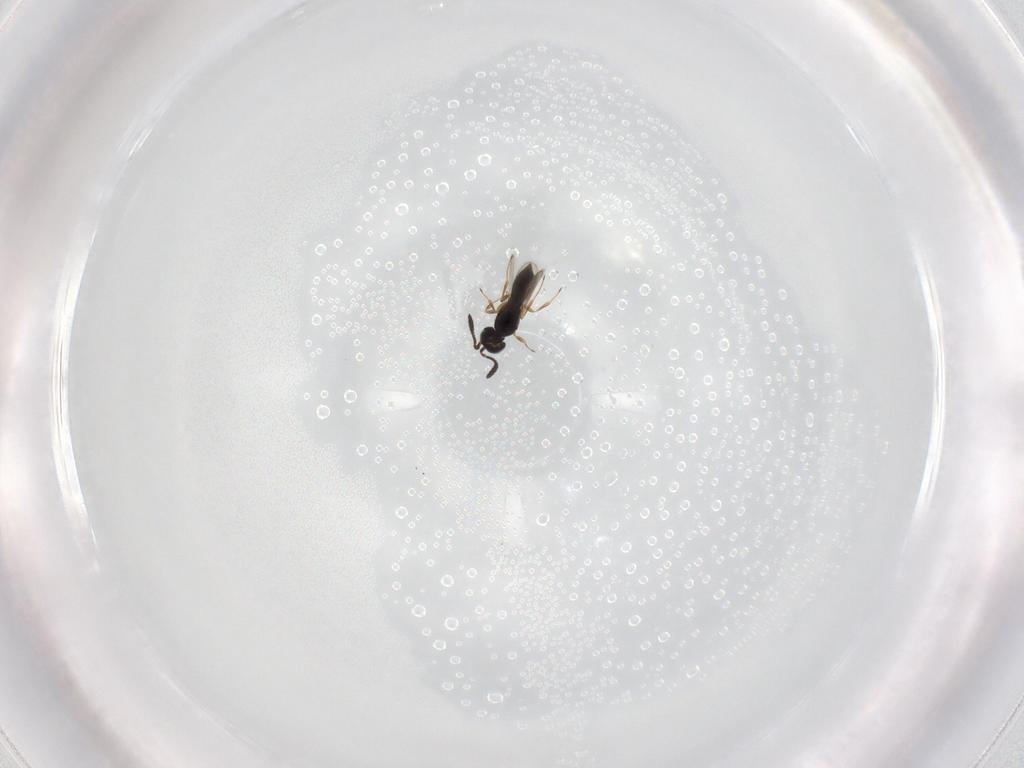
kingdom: Animalia
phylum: Arthropoda
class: Insecta
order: Hymenoptera
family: Scelionidae
